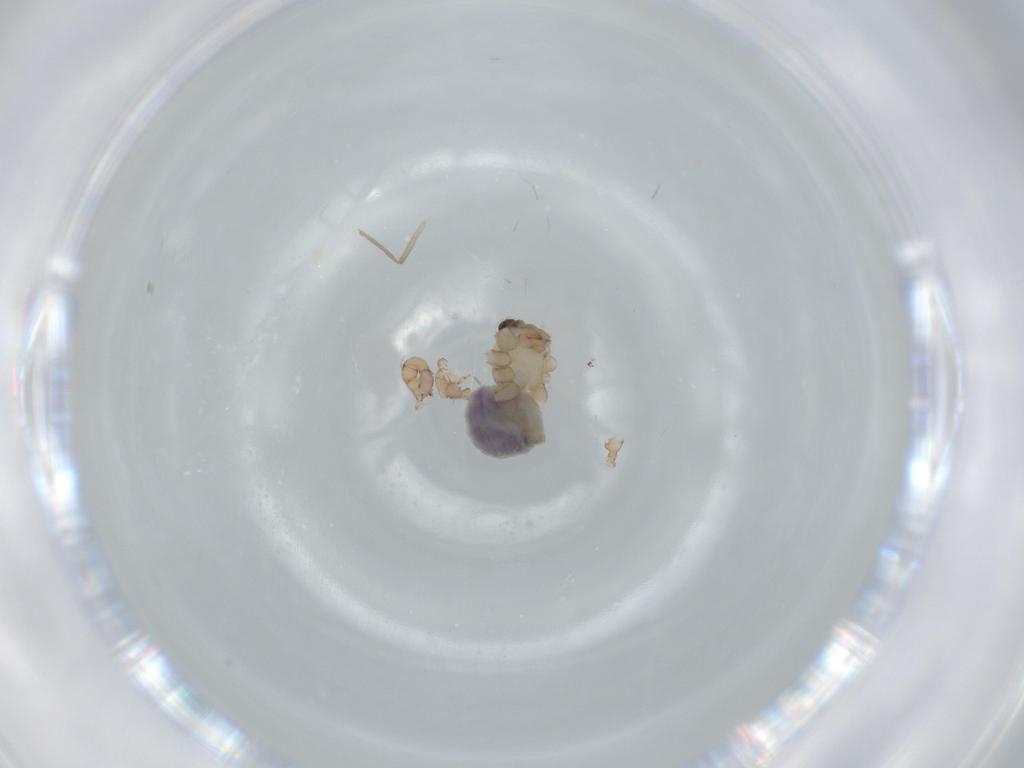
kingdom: Animalia
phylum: Arthropoda
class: Arachnida
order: Araneae
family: Pholcidae
